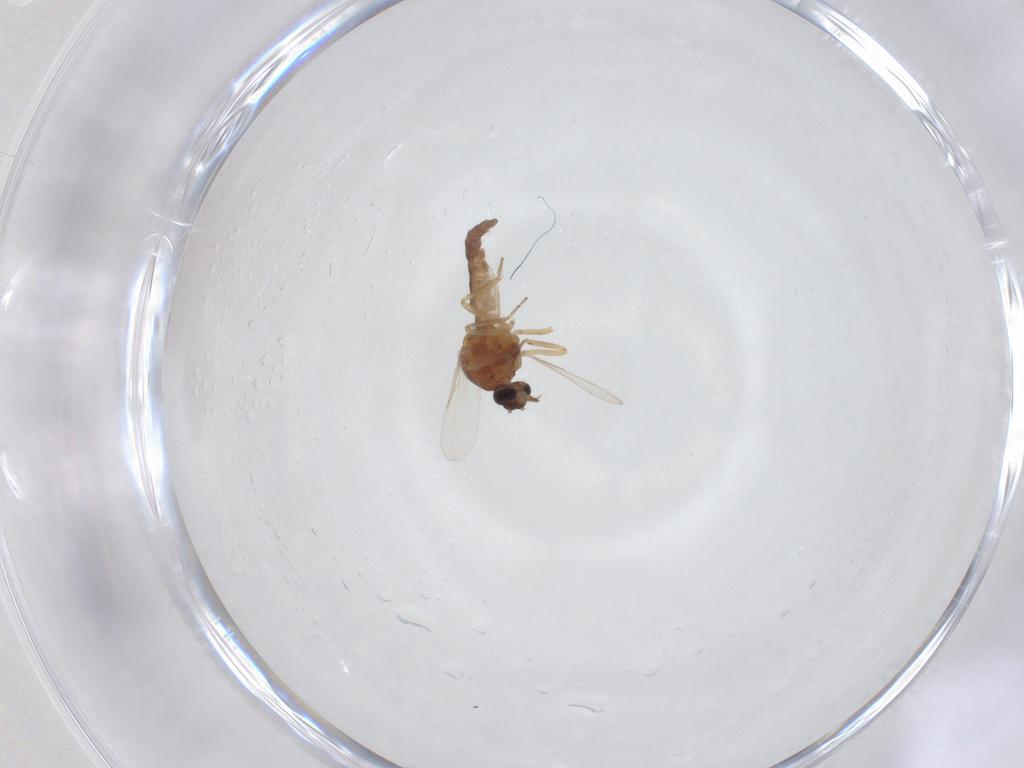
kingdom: Animalia
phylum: Arthropoda
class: Insecta
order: Diptera
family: Ceratopogonidae
